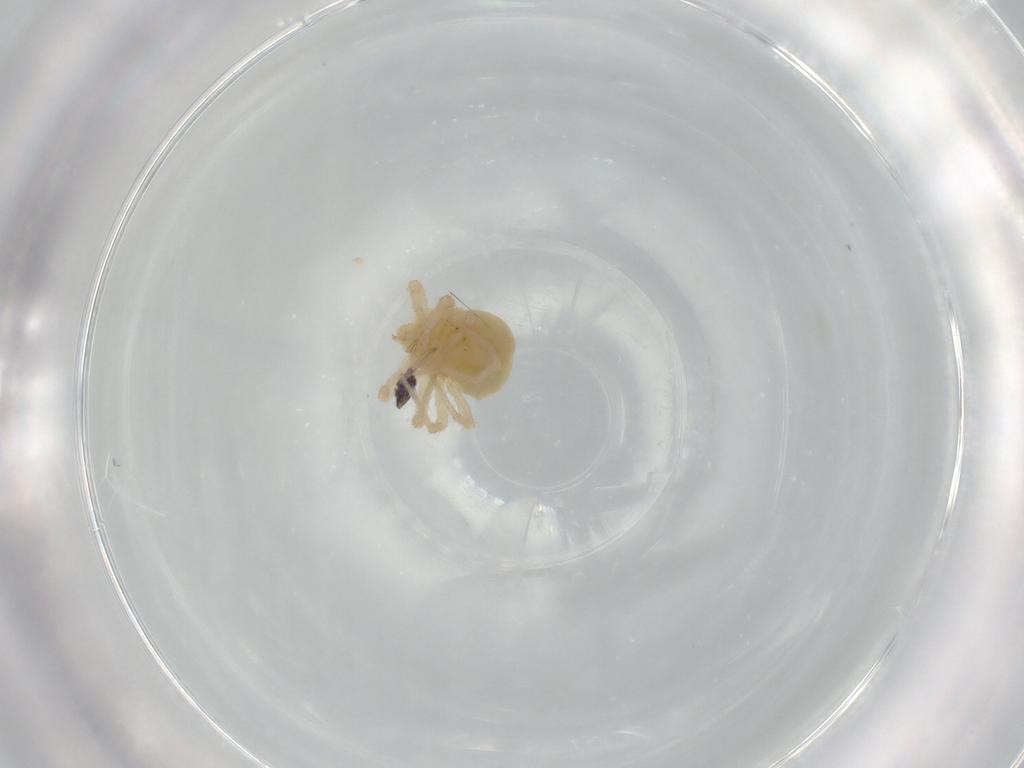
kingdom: Animalia
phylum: Arthropoda
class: Arachnida
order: Trombidiformes
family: Anystidae
